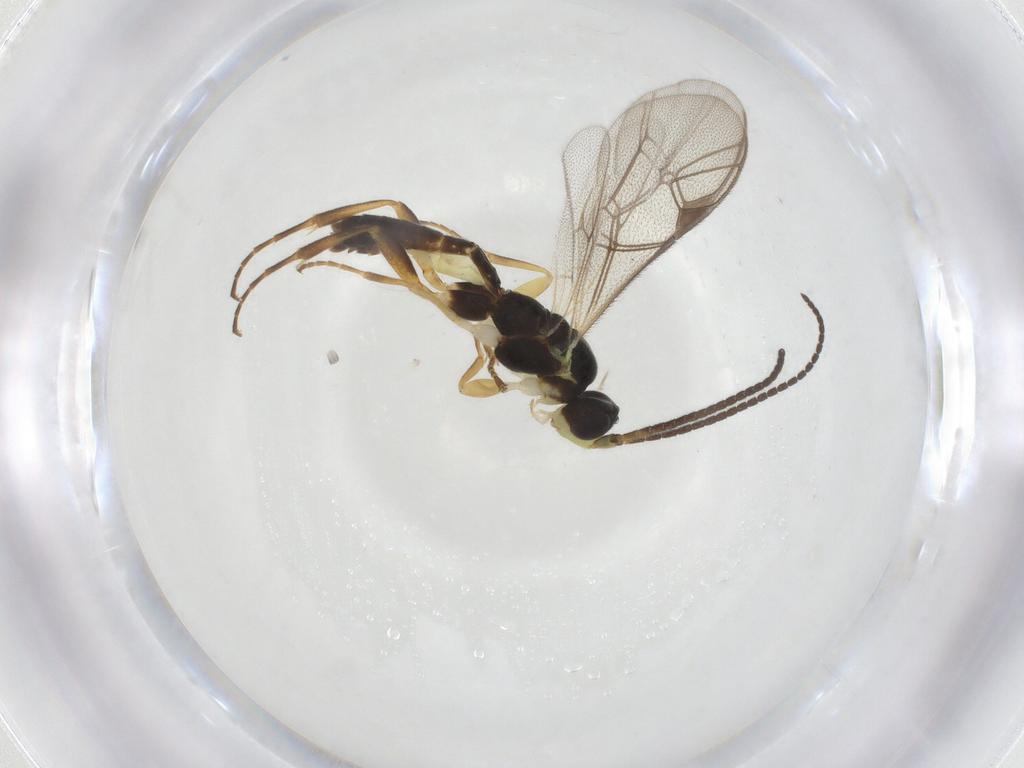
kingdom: Animalia
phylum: Arthropoda
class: Insecta
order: Hymenoptera
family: Ichneumonidae
